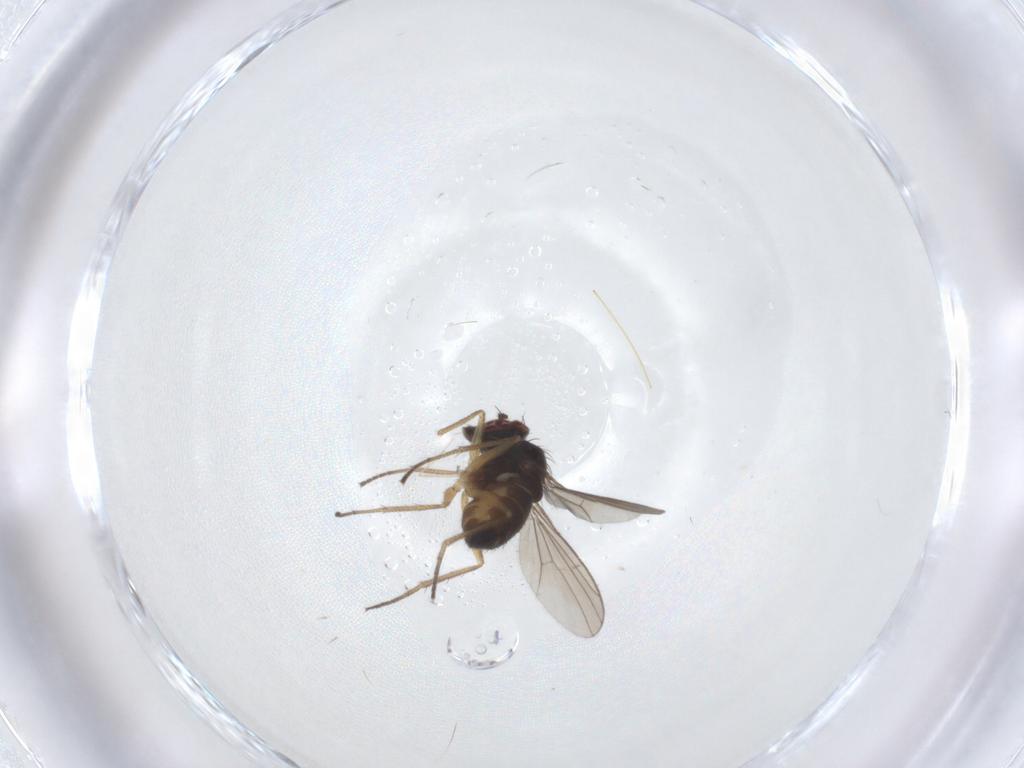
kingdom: Animalia
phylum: Arthropoda
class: Insecta
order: Diptera
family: Dolichopodidae
